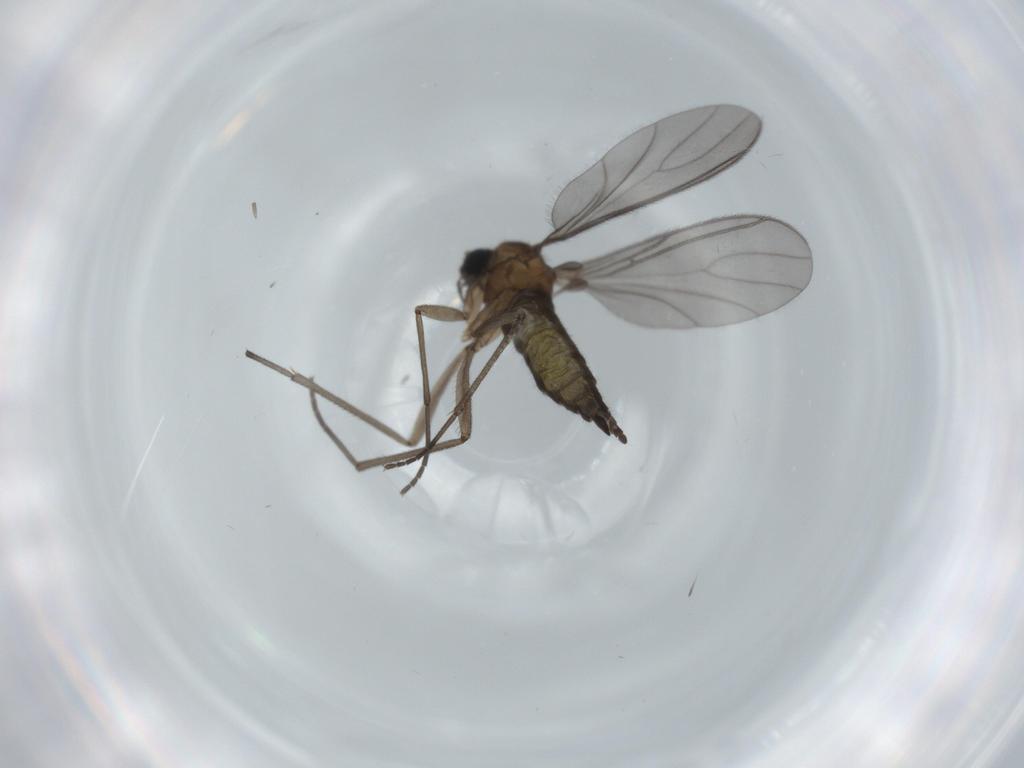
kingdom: Animalia
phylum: Arthropoda
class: Insecta
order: Diptera
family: Sciaridae
